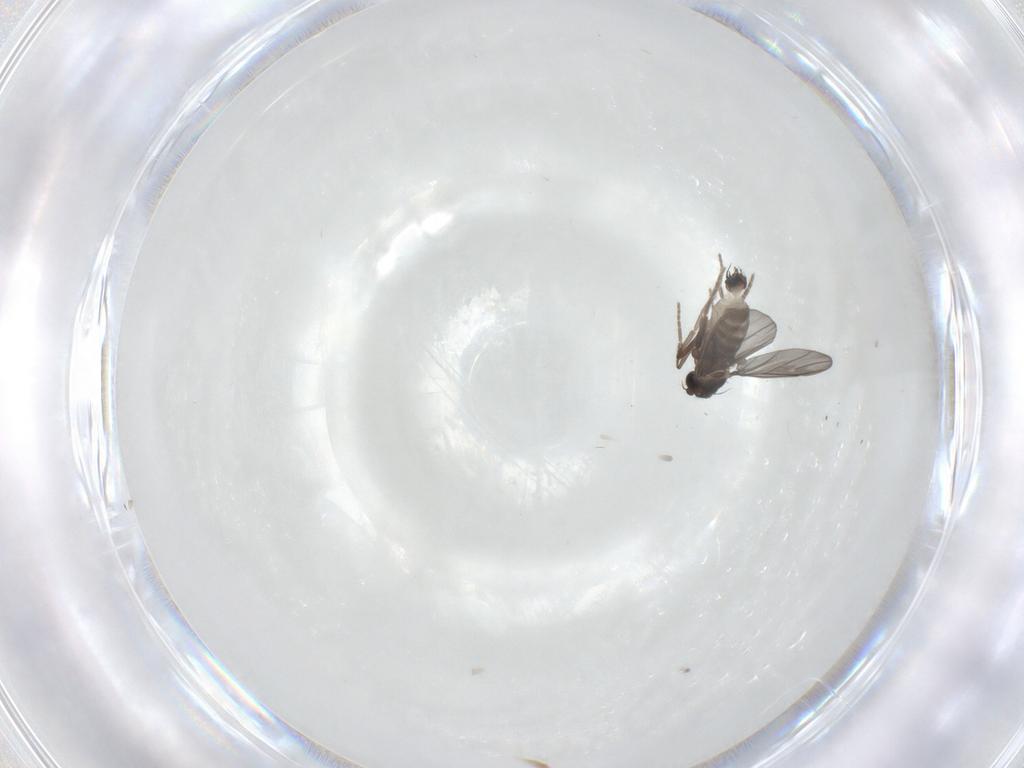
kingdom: Animalia
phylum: Arthropoda
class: Insecta
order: Diptera
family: Phoridae
